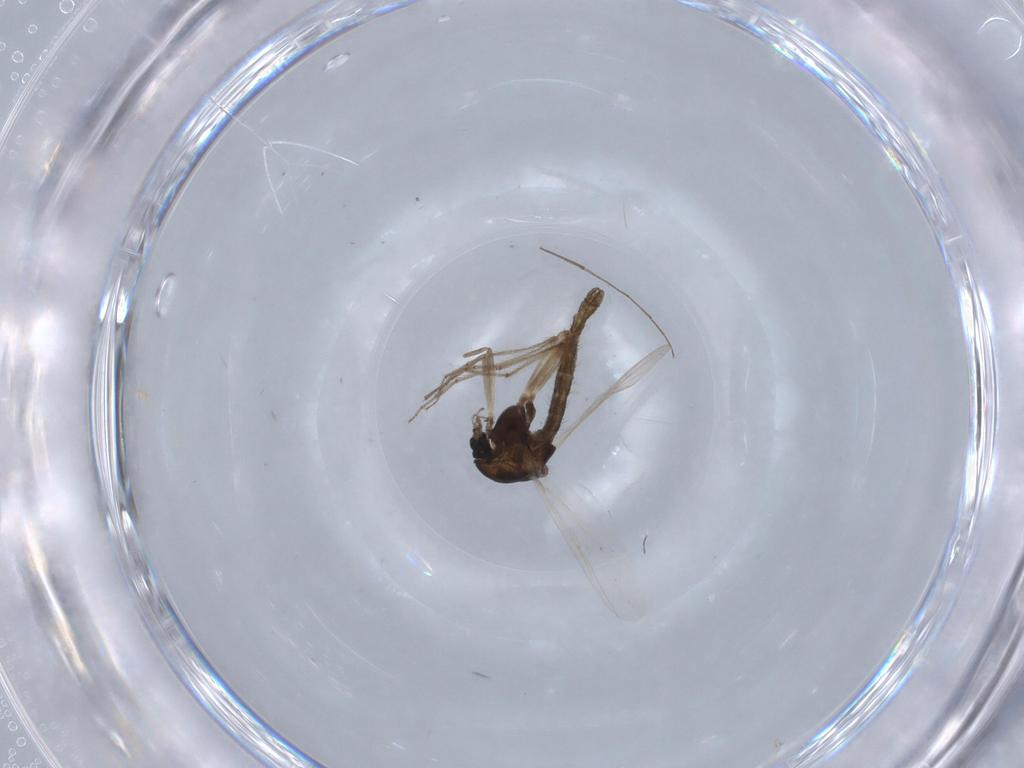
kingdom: Animalia
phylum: Arthropoda
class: Insecta
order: Diptera
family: Chironomidae
